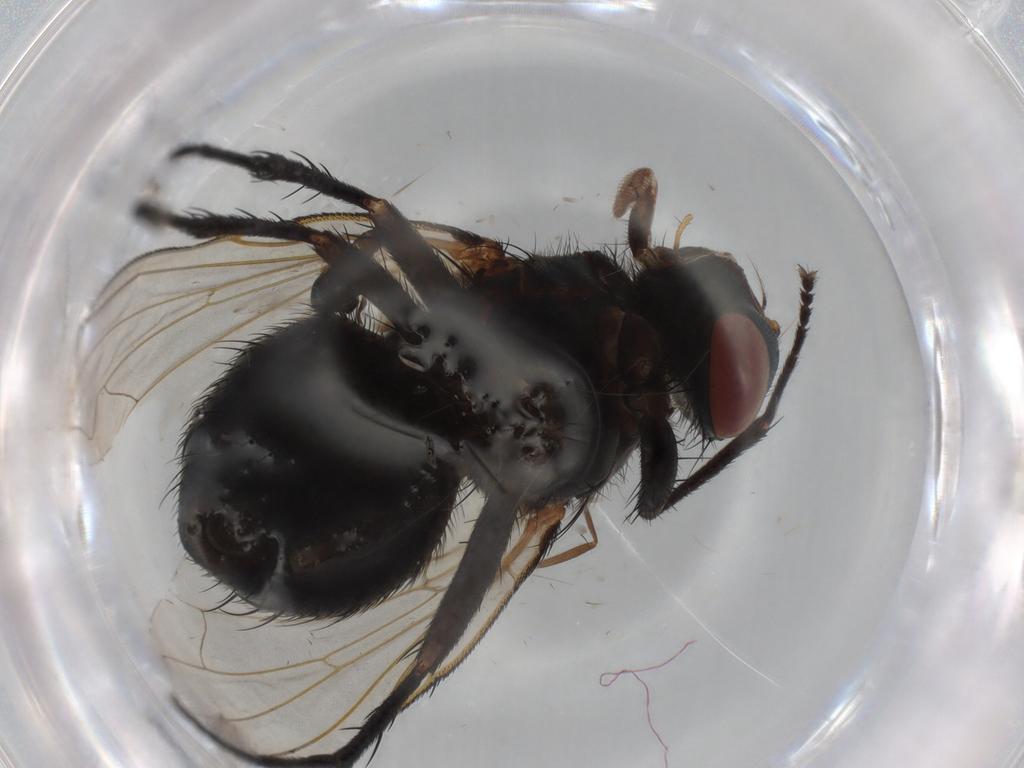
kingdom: Animalia
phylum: Arthropoda
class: Insecta
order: Diptera
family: Calliphoridae
